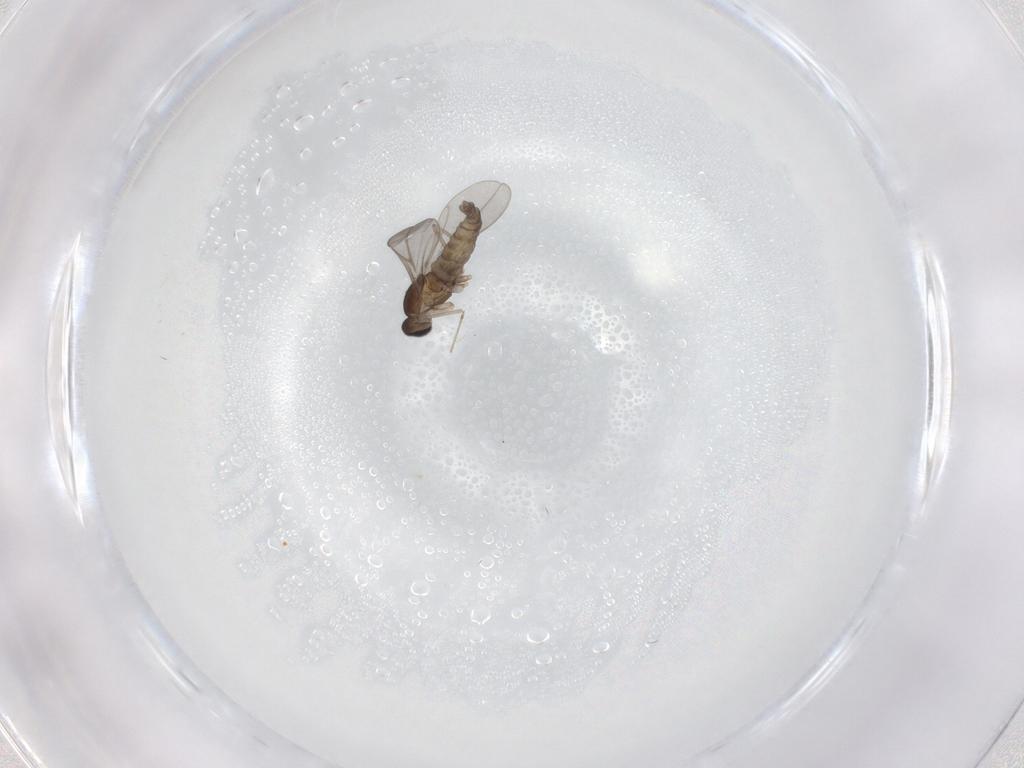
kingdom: Animalia
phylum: Arthropoda
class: Insecta
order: Diptera
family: Cecidomyiidae
